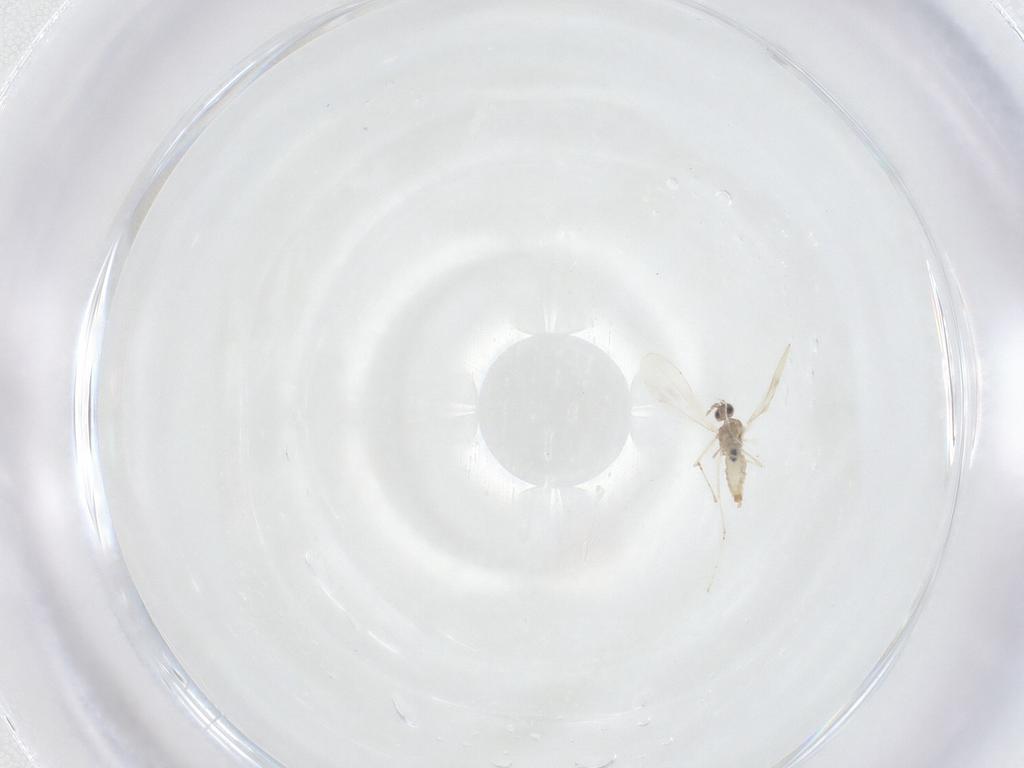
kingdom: Animalia
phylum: Arthropoda
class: Insecta
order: Diptera
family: Cecidomyiidae
